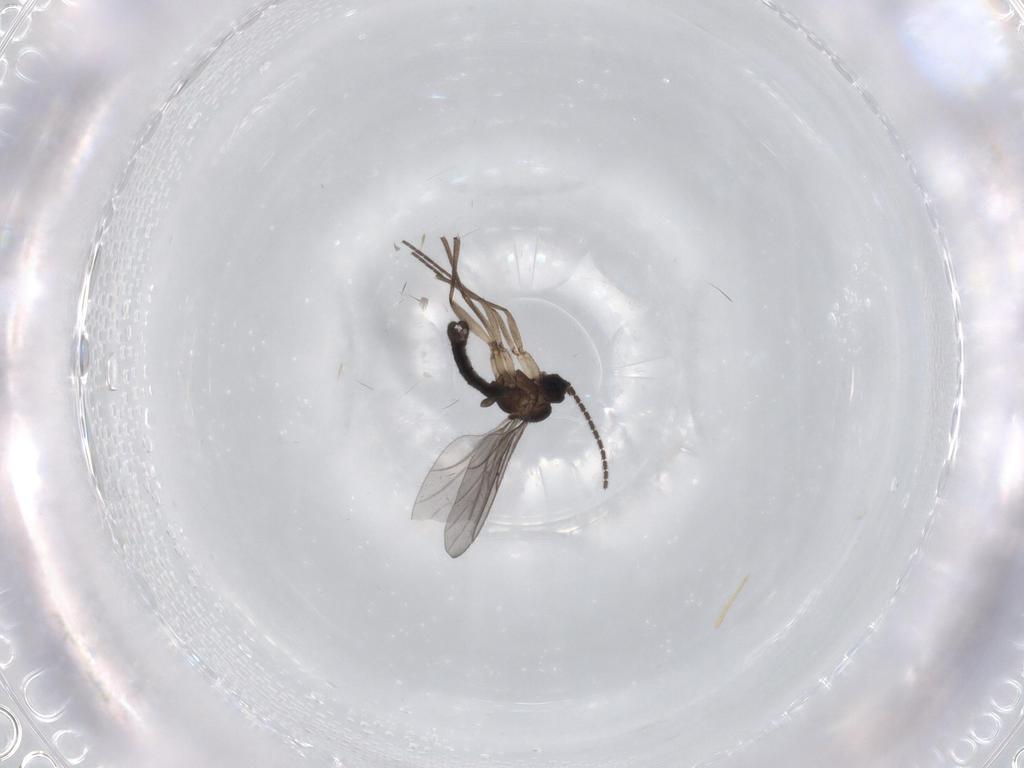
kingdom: Animalia
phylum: Arthropoda
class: Insecta
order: Diptera
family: Sciaridae
